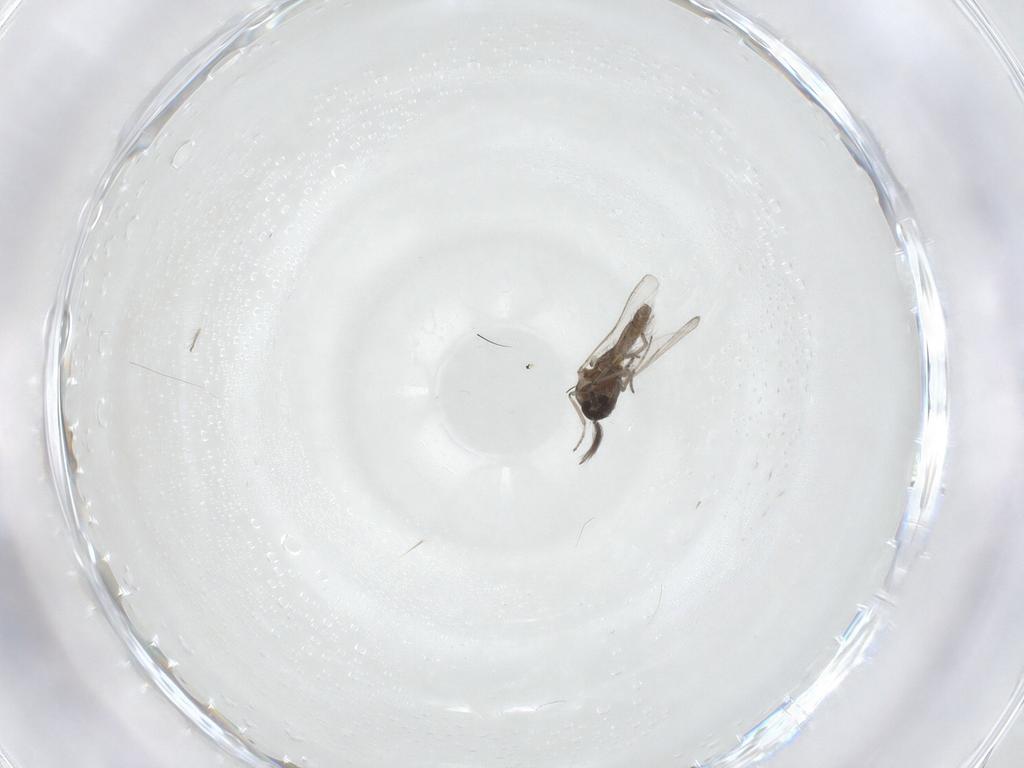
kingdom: Animalia
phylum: Arthropoda
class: Insecta
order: Diptera
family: Ceratopogonidae
